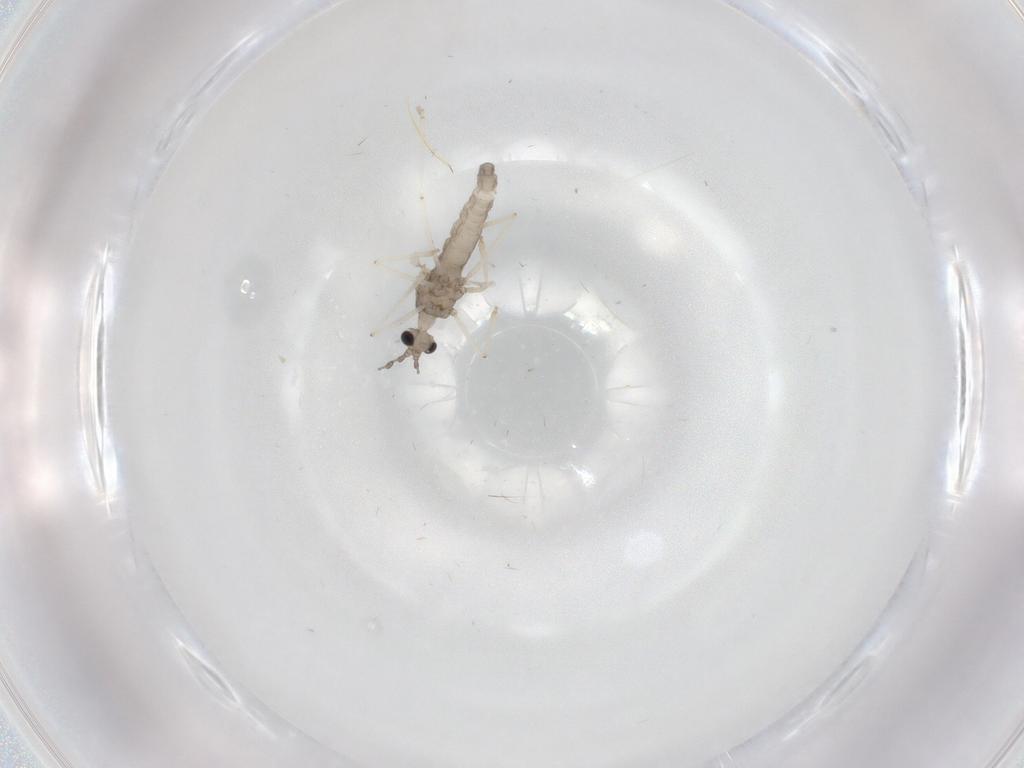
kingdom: Animalia
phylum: Arthropoda
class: Insecta
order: Diptera
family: Cecidomyiidae
